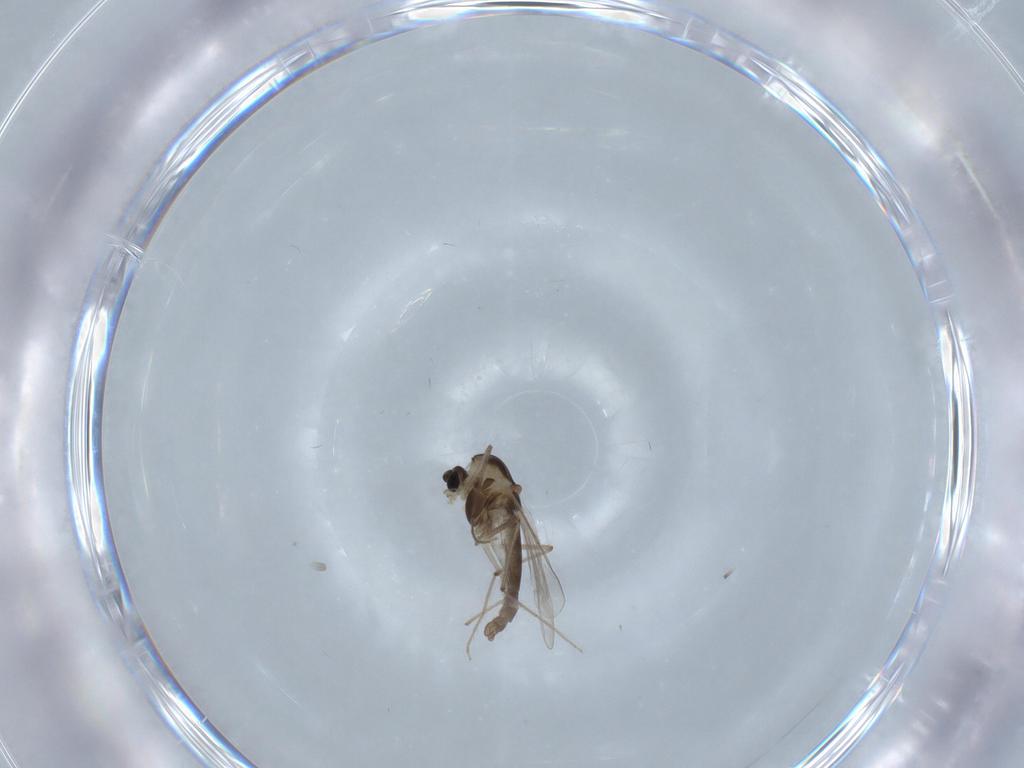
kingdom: Animalia
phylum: Arthropoda
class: Insecta
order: Diptera
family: Chironomidae
